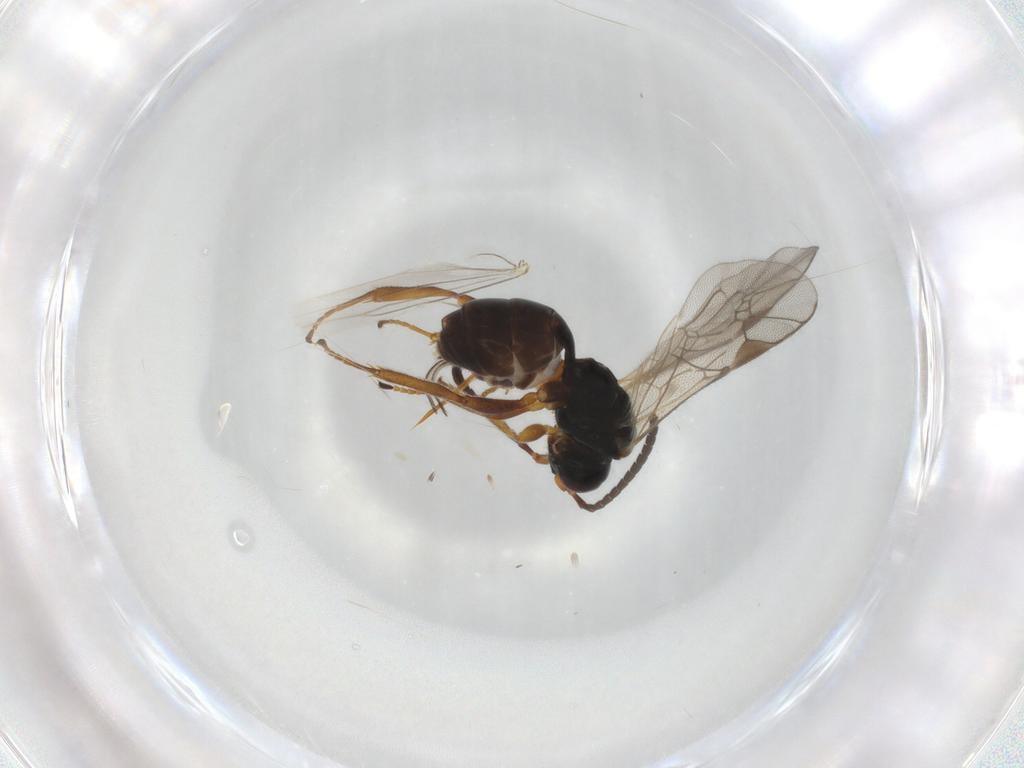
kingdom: Animalia
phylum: Arthropoda
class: Insecta
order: Hymenoptera
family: Ichneumonidae
